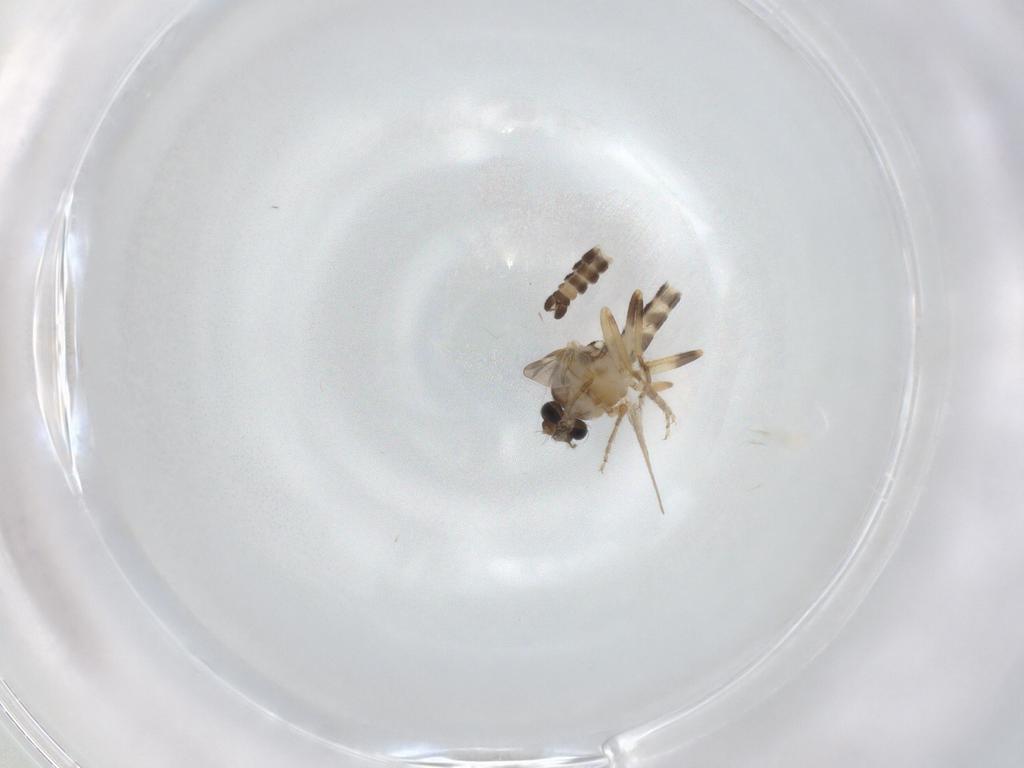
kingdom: Animalia
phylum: Arthropoda
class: Insecta
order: Diptera
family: Ceratopogonidae
